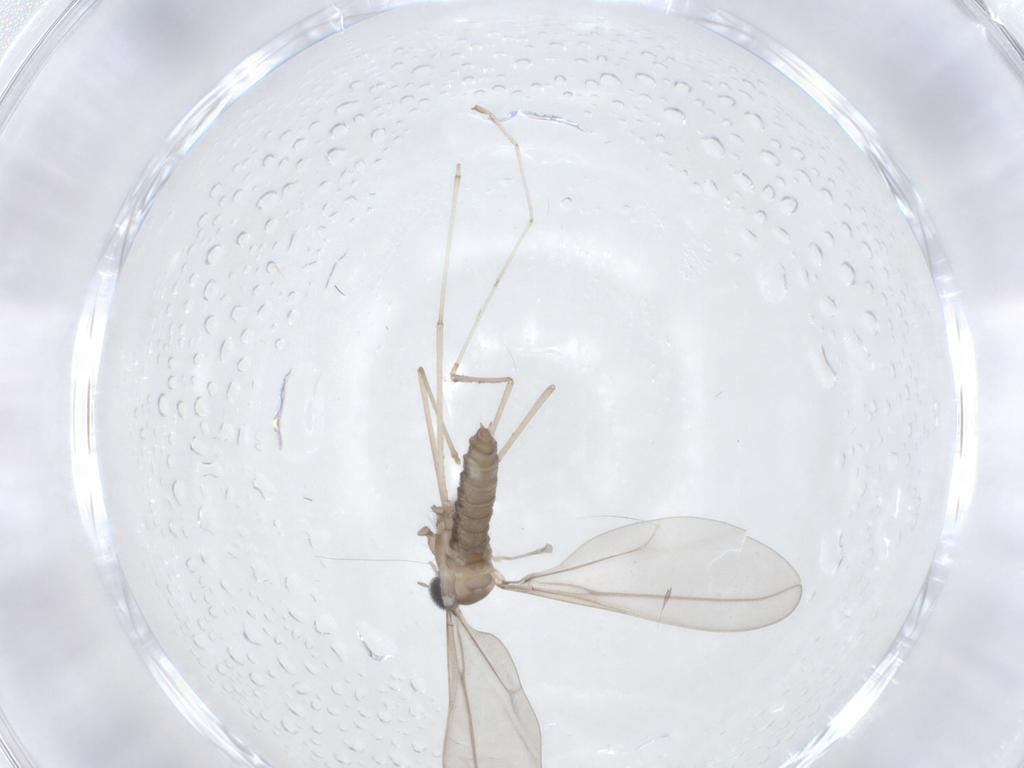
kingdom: Animalia
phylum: Arthropoda
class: Insecta
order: Diptera
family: Cecidomyiidae
